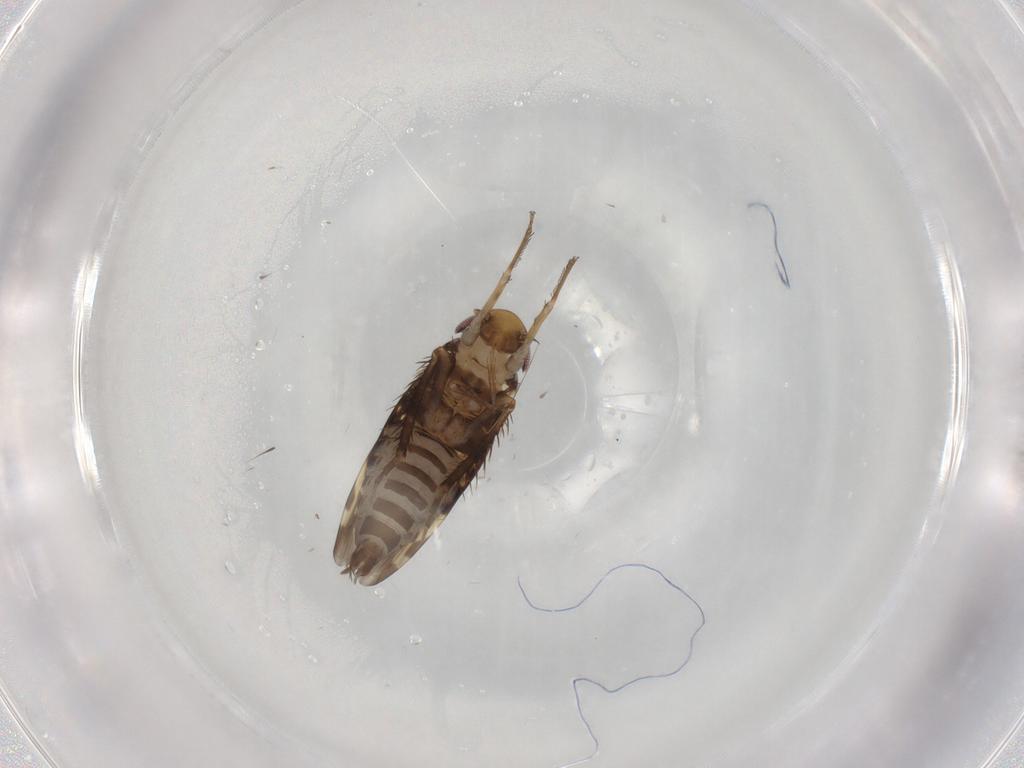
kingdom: Animalia
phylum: Arthropoda
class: Insecta
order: Hemiptera
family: Cicadellidae
